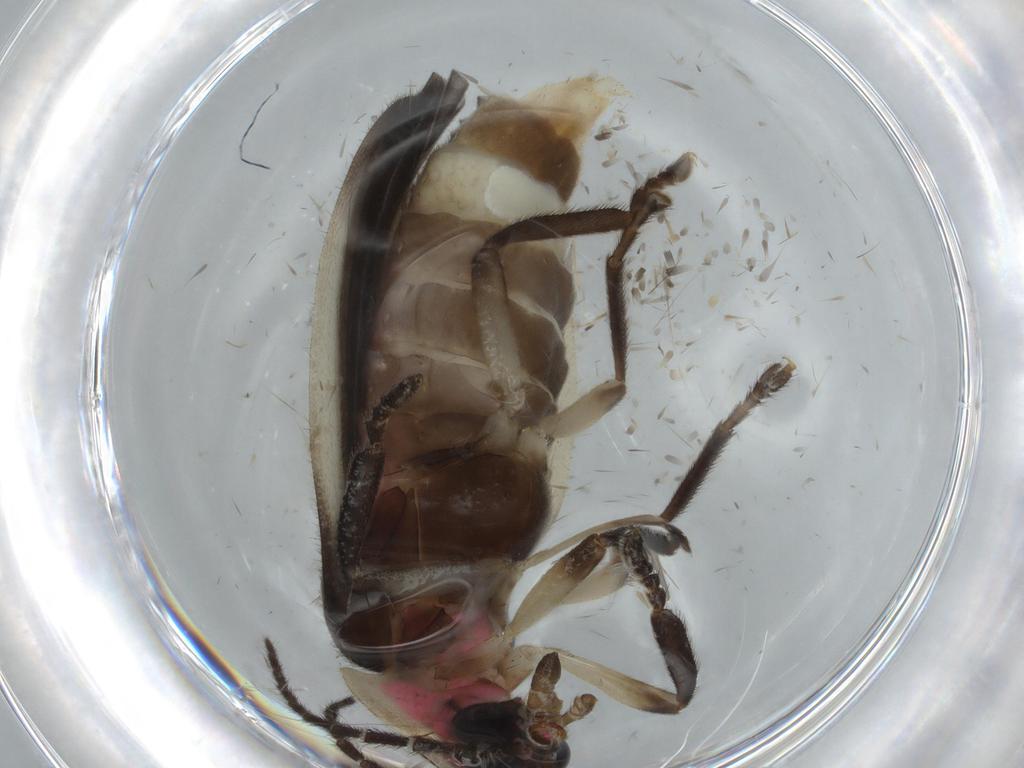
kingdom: Animalia
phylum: Arthropoda
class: Insecta
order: Coleoptera
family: Lampyridae
